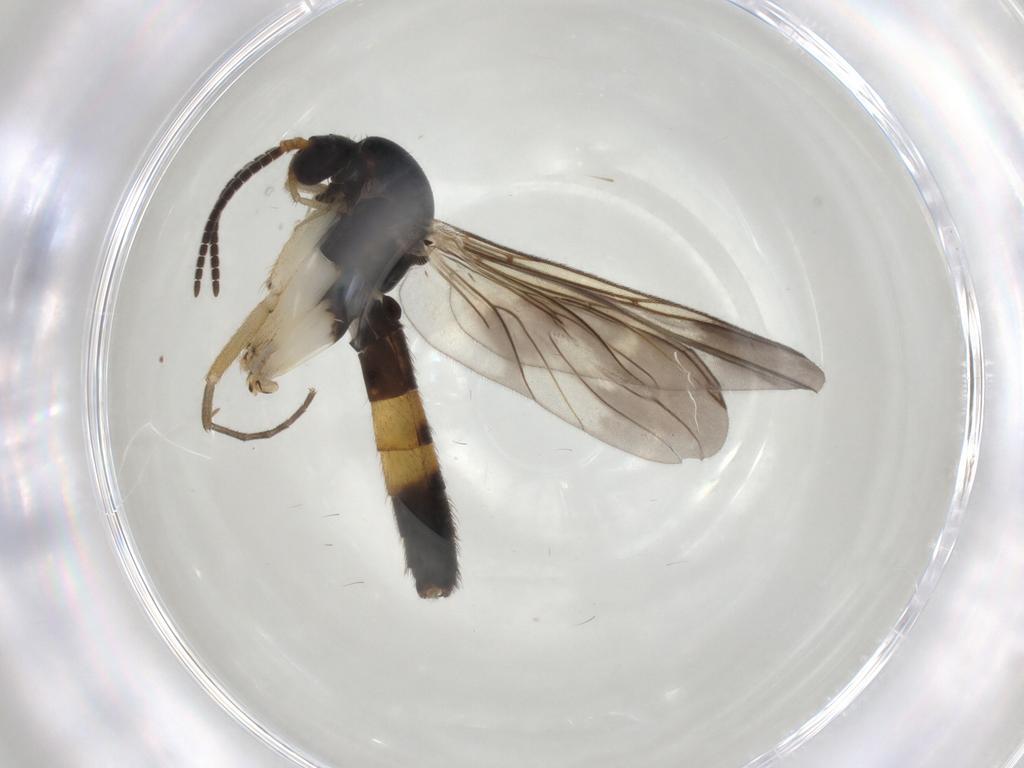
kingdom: Animalia
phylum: Arthropoda
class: Insecta
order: Diptera
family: Mycetophilidae
